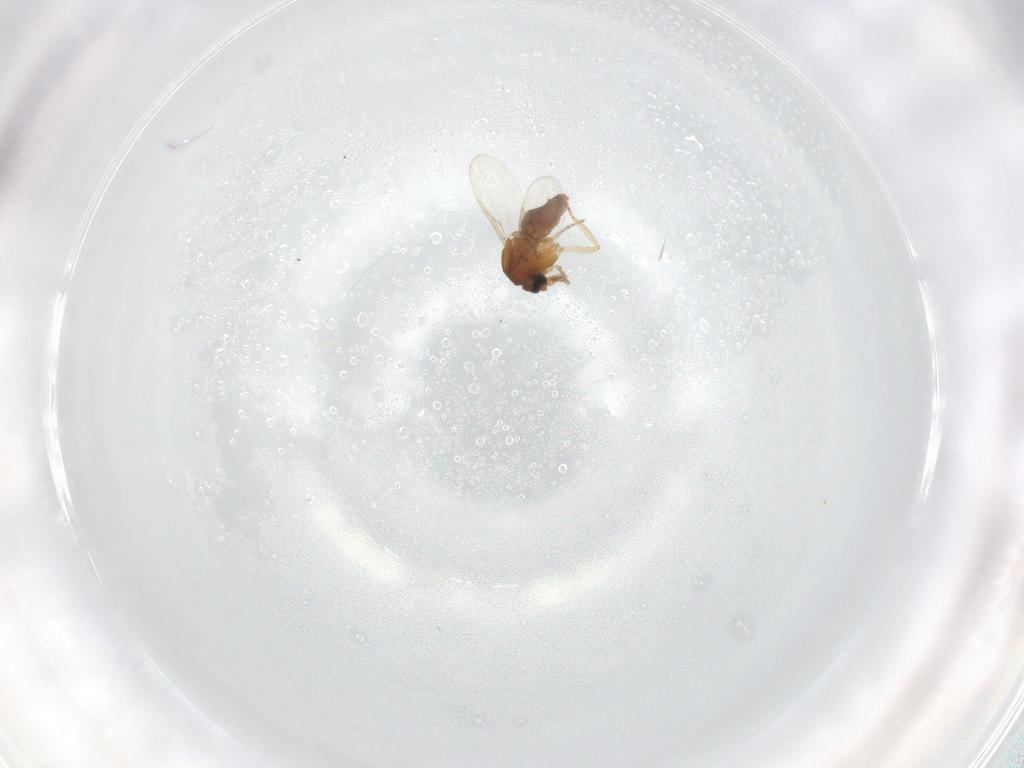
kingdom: Animalia
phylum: Arthropoda
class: Insecta
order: Diptera
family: Ceratopogonidae
